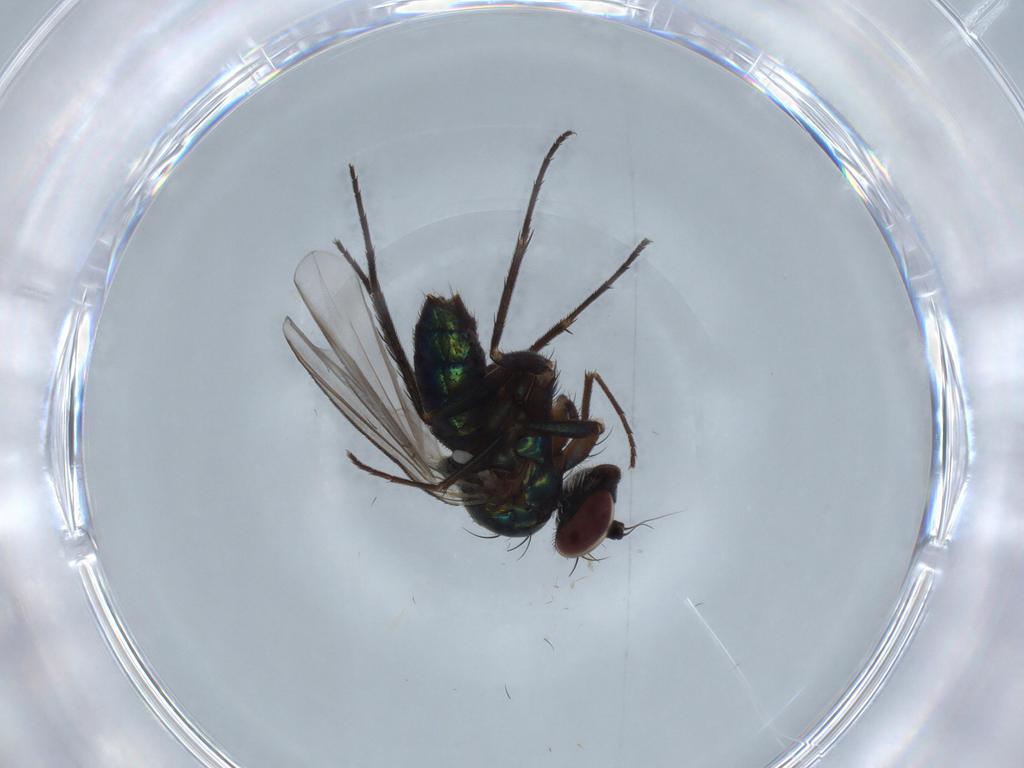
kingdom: Animalia
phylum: Arthropoda
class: Insecta
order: Diptera
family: Dolichopodidae
